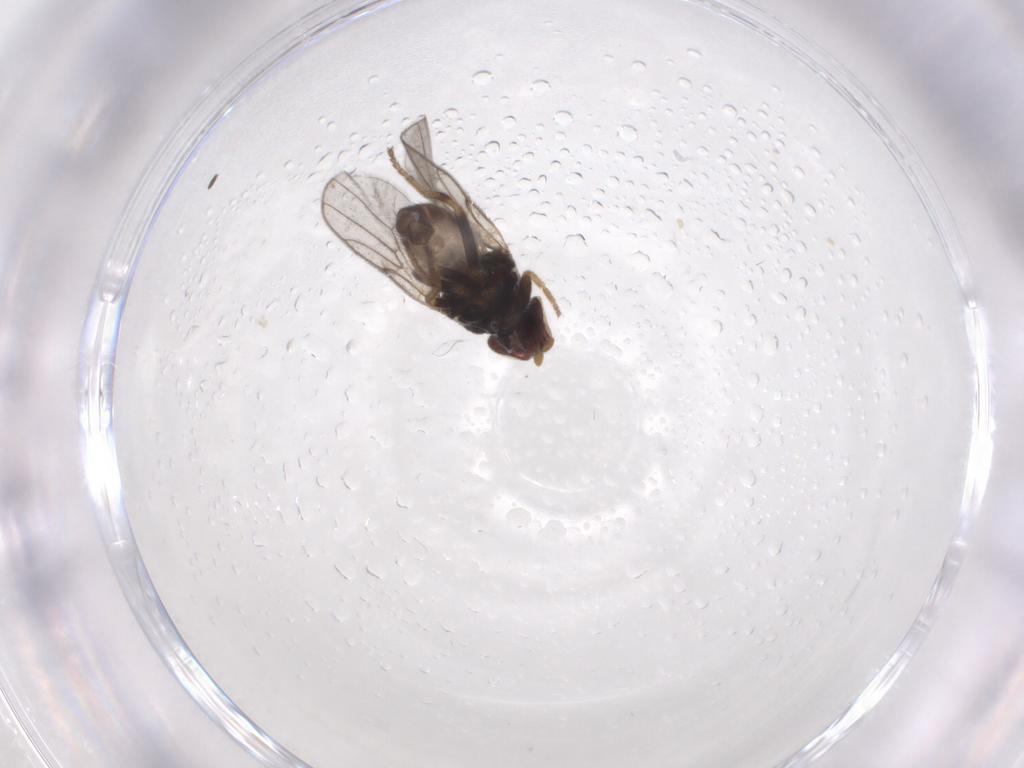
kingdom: Animalia
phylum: Arthropoda
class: Insecta
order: Diptera
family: Sciaridae
